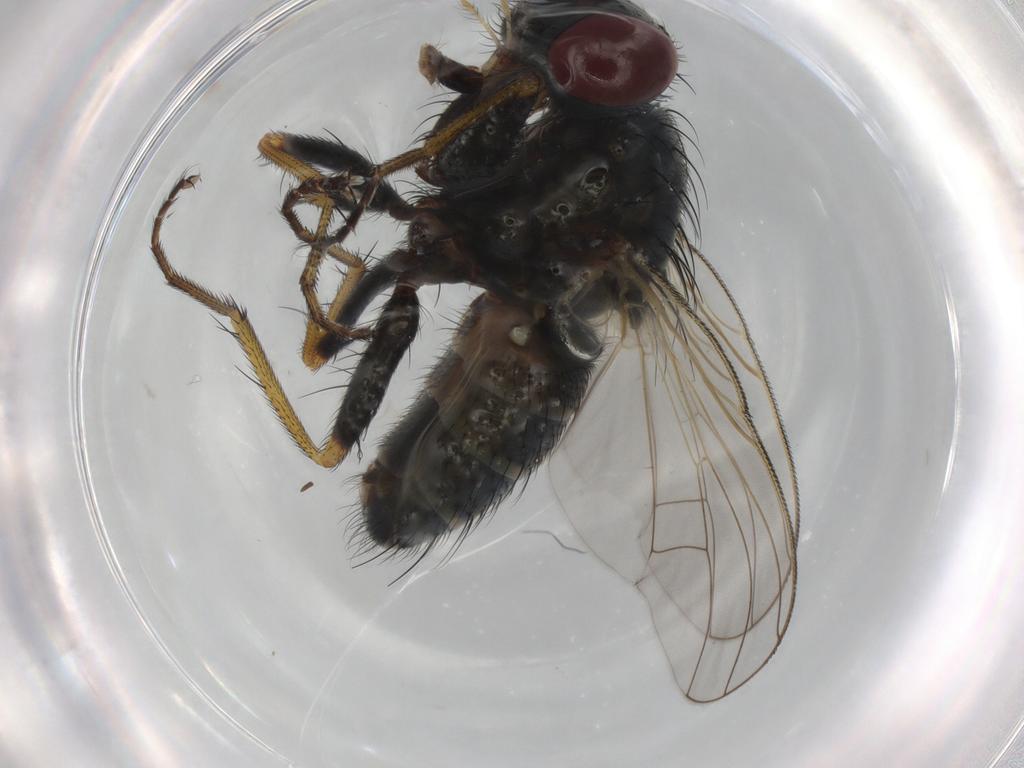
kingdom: Animalia
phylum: Arthropoda
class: Insecta
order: Diptera
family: Muscidae
